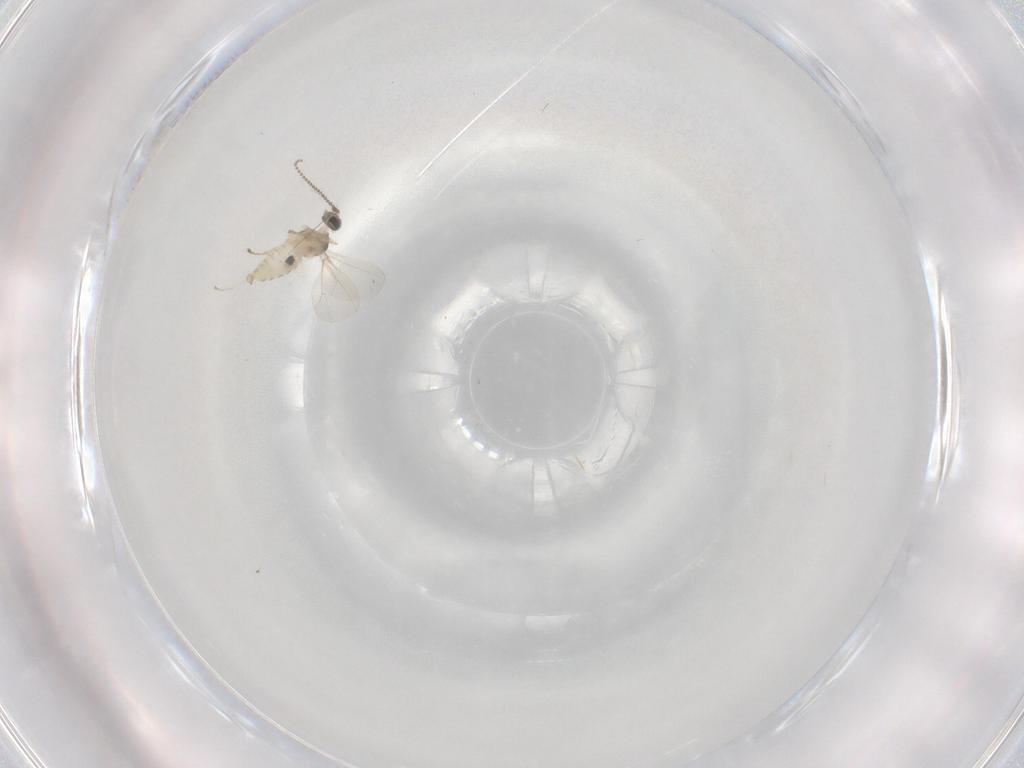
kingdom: Animalia
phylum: Arthropoda
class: Insecta
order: Diptera
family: Cecidomyiidae
